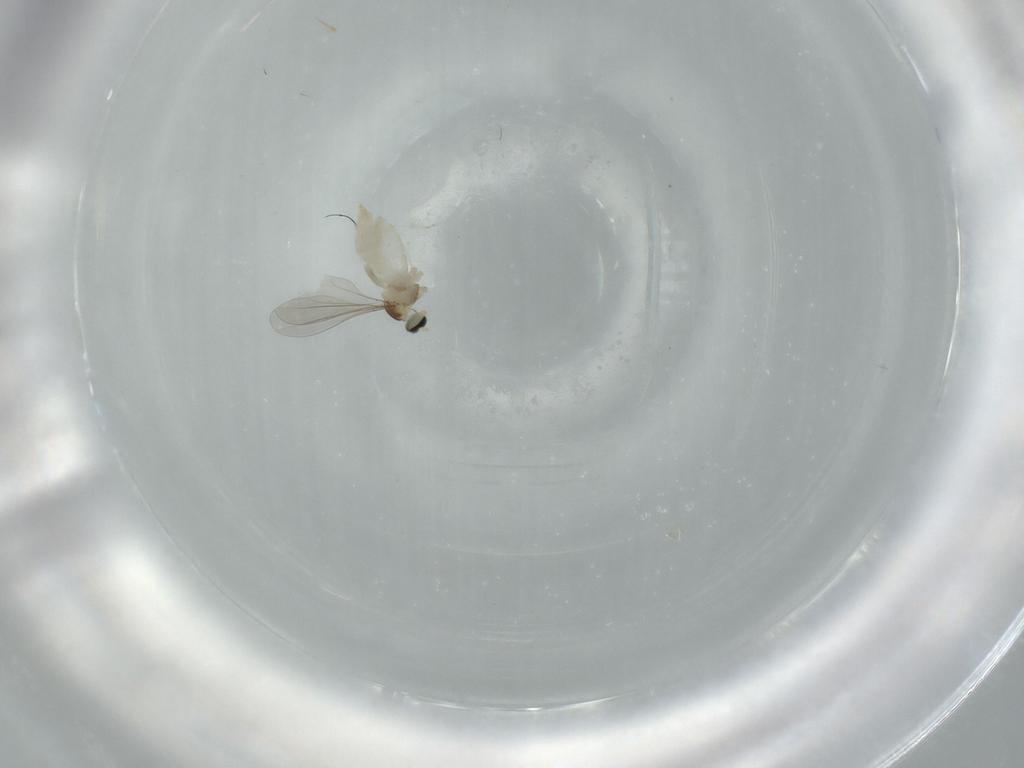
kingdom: Animalia
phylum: Arthropoda
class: Insecta
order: Diptera
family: Cecidomyiidae
